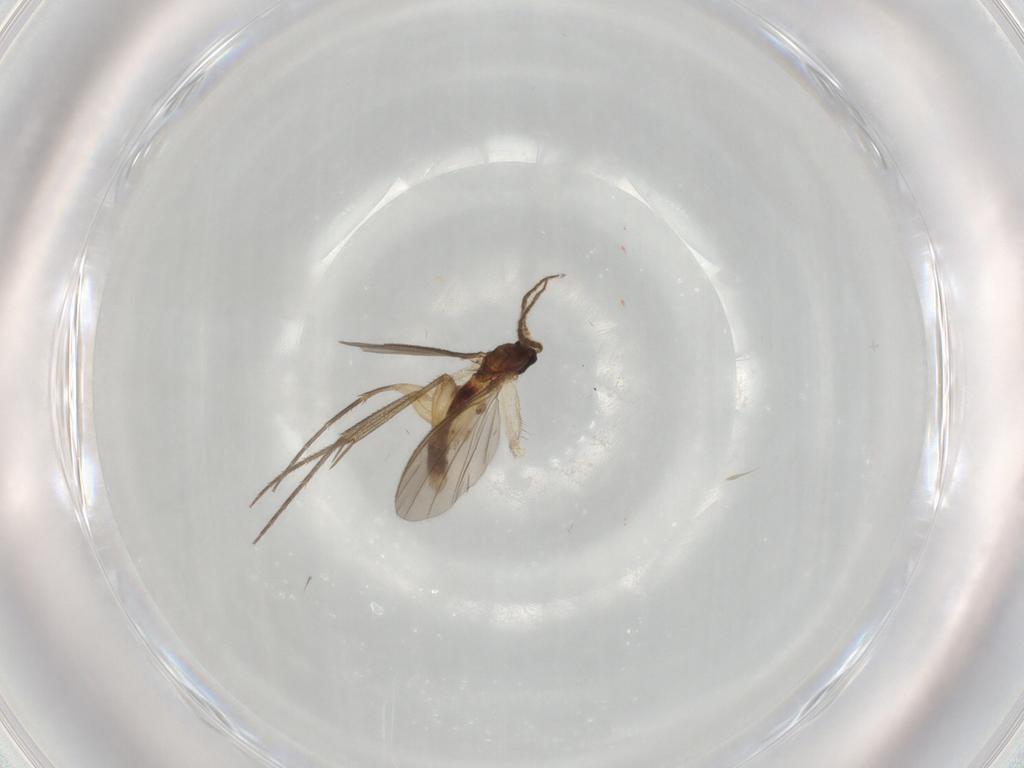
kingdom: Animalia
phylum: Arthropoda
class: Insecta
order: Diptera
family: Mycetophilidae
